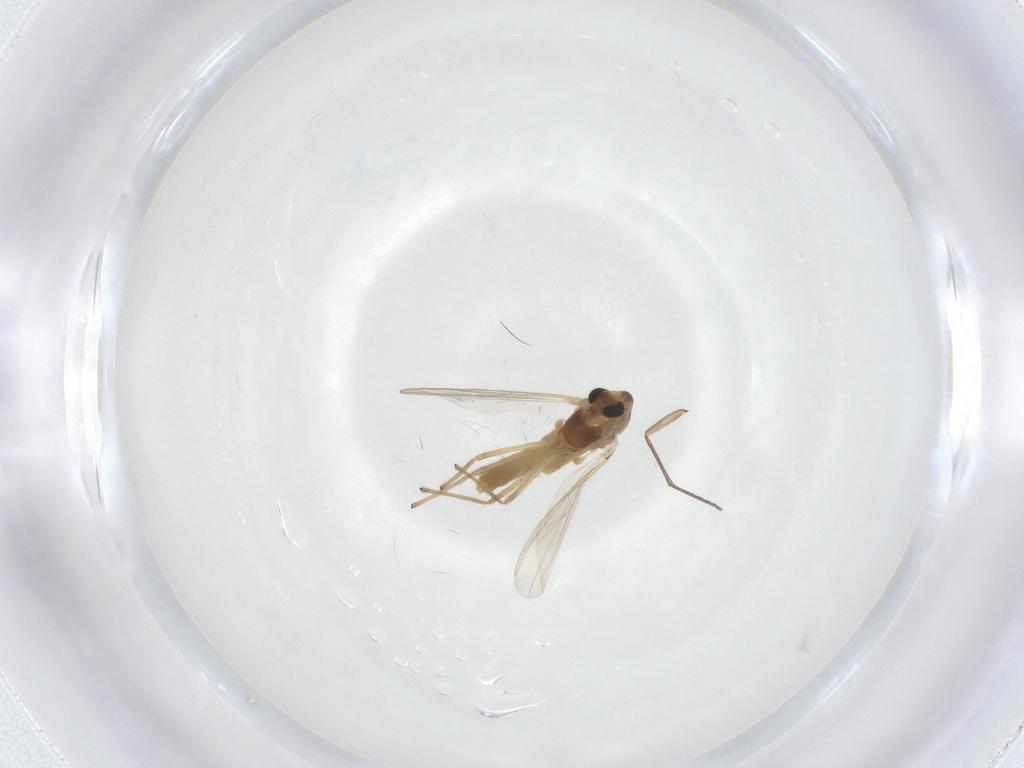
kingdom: Animalia
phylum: Arthropoda
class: Insecta
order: Diptera
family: Chironomidae
